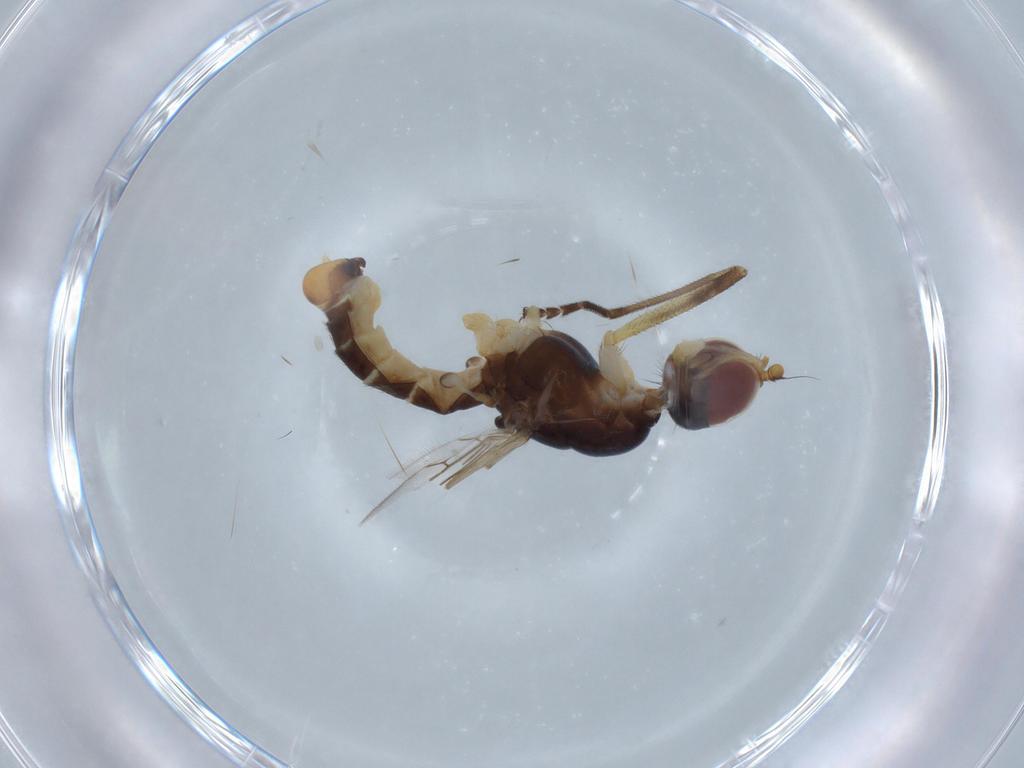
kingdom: Animalia
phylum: Arthropoda
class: Insecta
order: Diptera
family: Micropezidae
